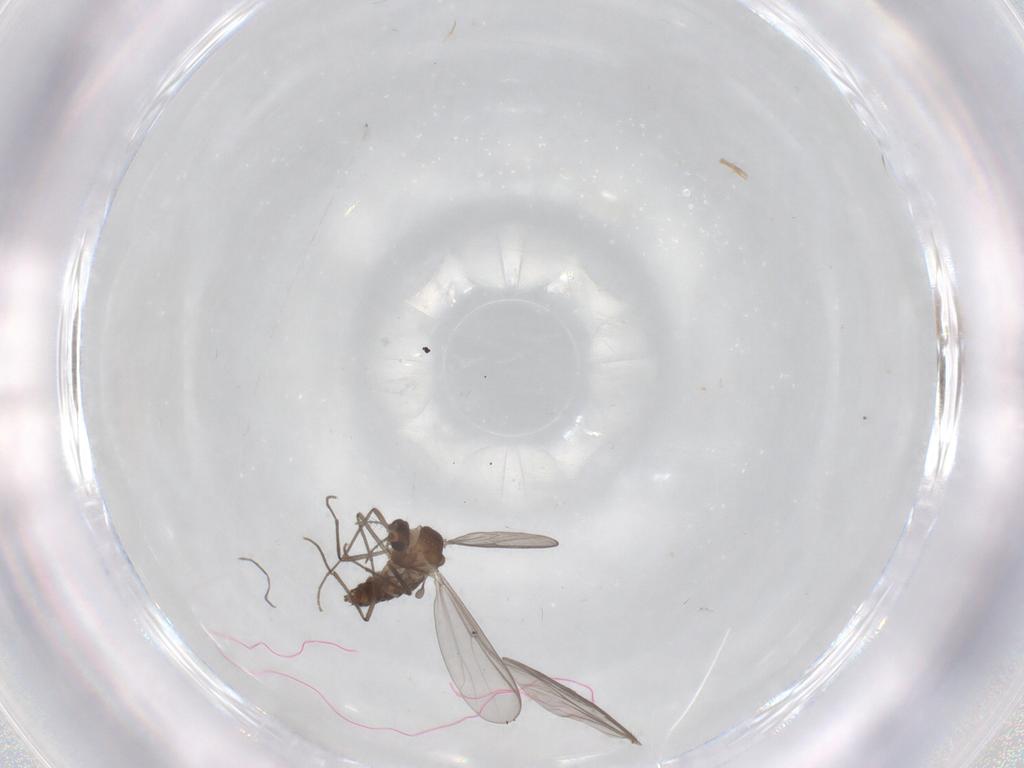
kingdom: Animalia
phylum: Arthropoda
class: Insecta
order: Diptera
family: Chironomidae
